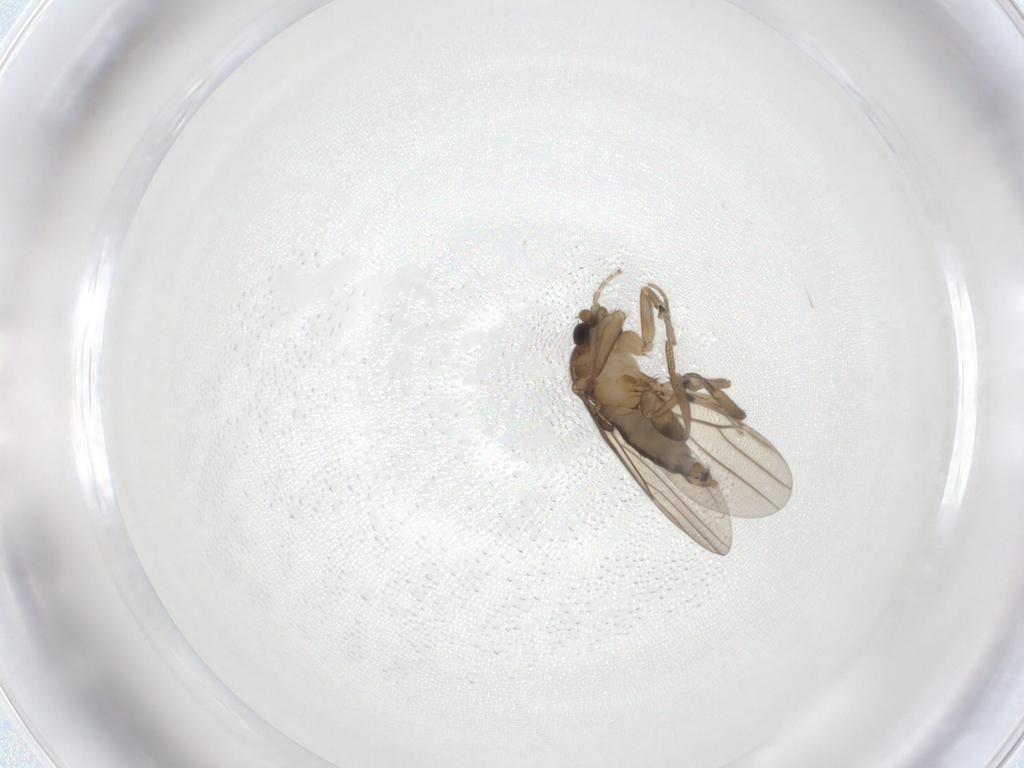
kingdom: Animalia
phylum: Arthropoda
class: Insecta
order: Diptera
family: Phoridae
